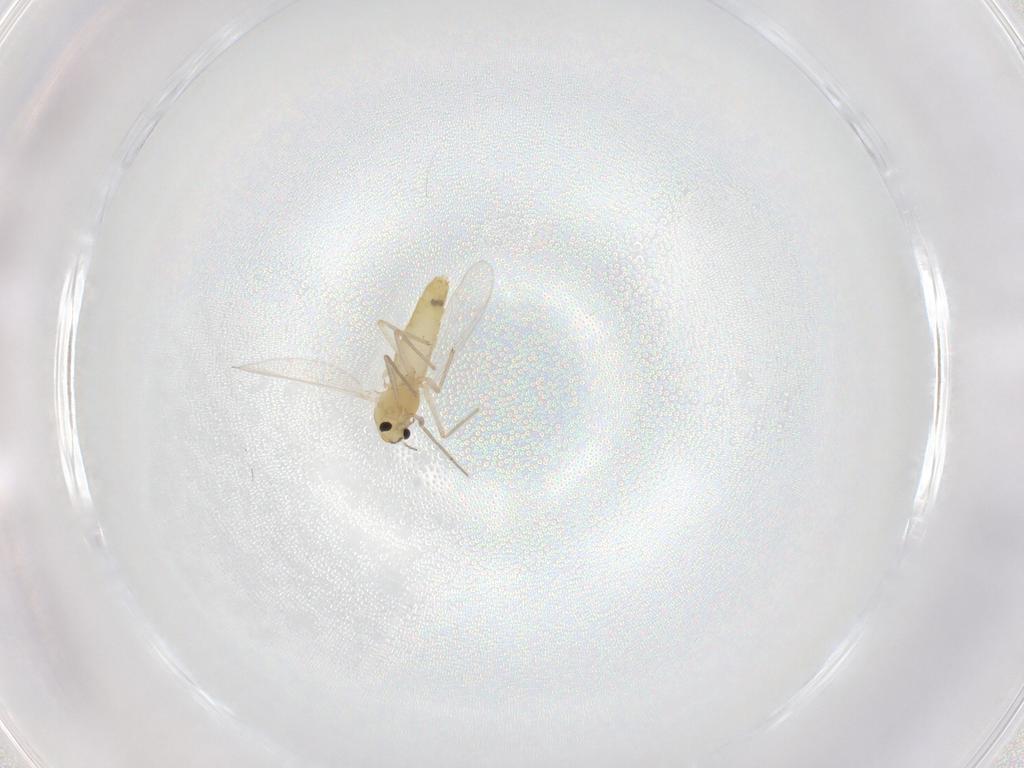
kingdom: Animalia
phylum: Arthropoda
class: Insecta
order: Diptera
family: Chironomidae
